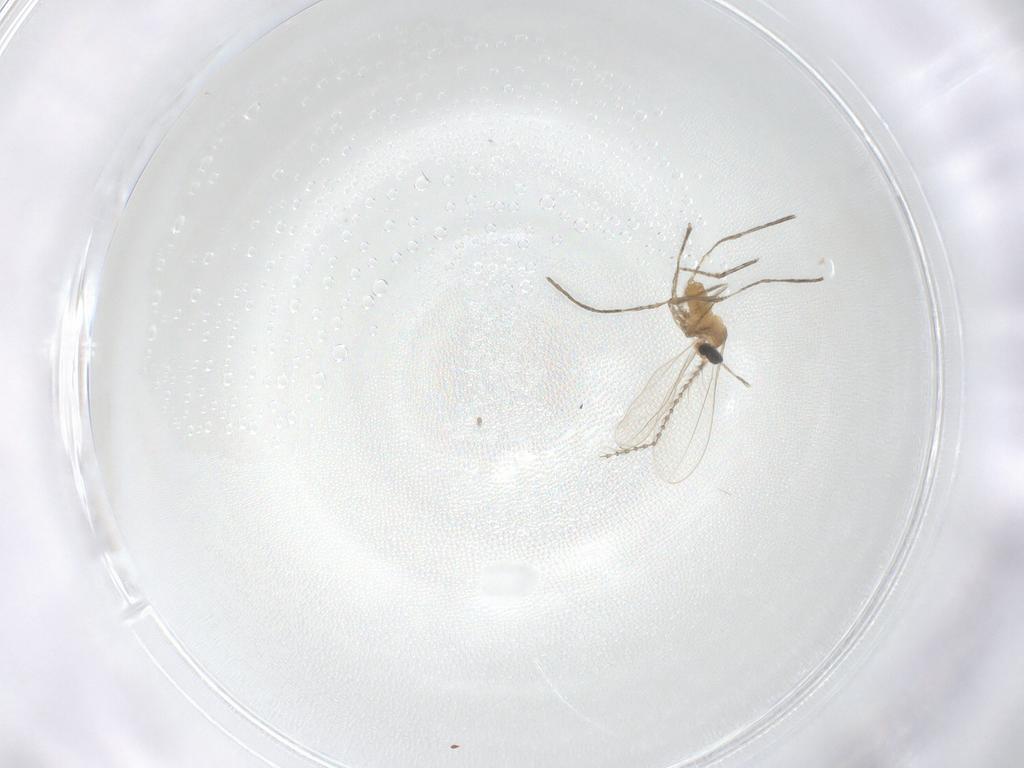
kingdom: Animalia
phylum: Arthropoda
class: Insecta
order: Diptera
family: Cecidomyiidae
